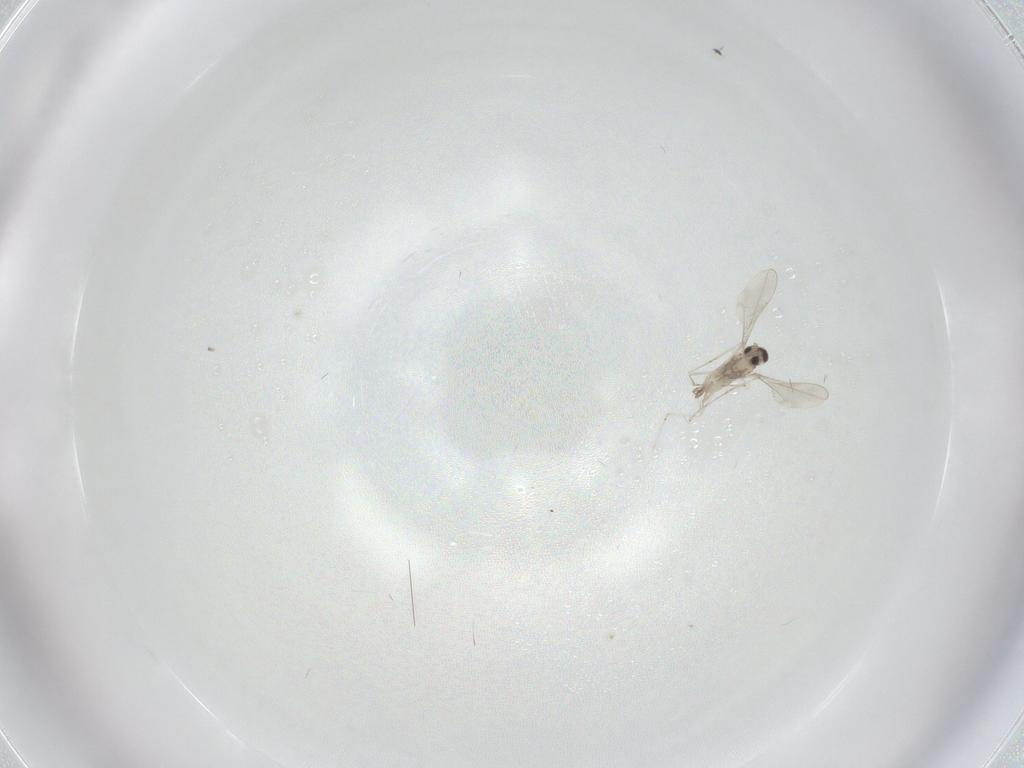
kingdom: Animalia
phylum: Arthropoda
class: Insecta
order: Diptera
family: Cecidomyiidae
